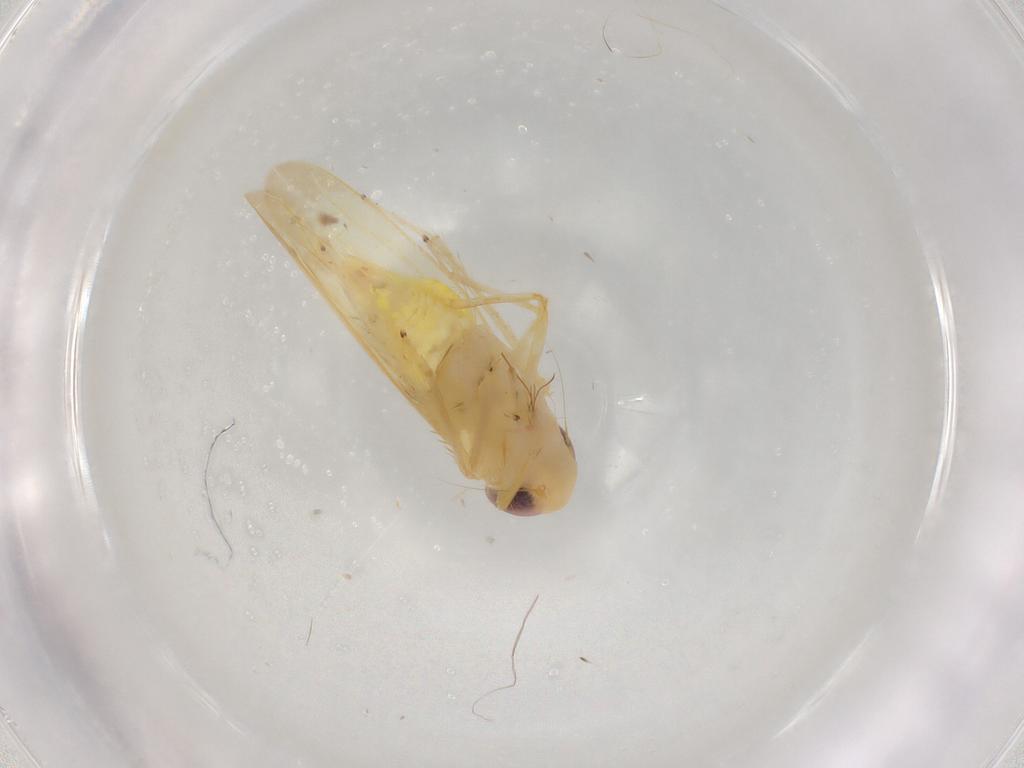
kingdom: Animalia
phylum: Arthropoda
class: Insecta
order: Hemiptera
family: Cicadellidae
